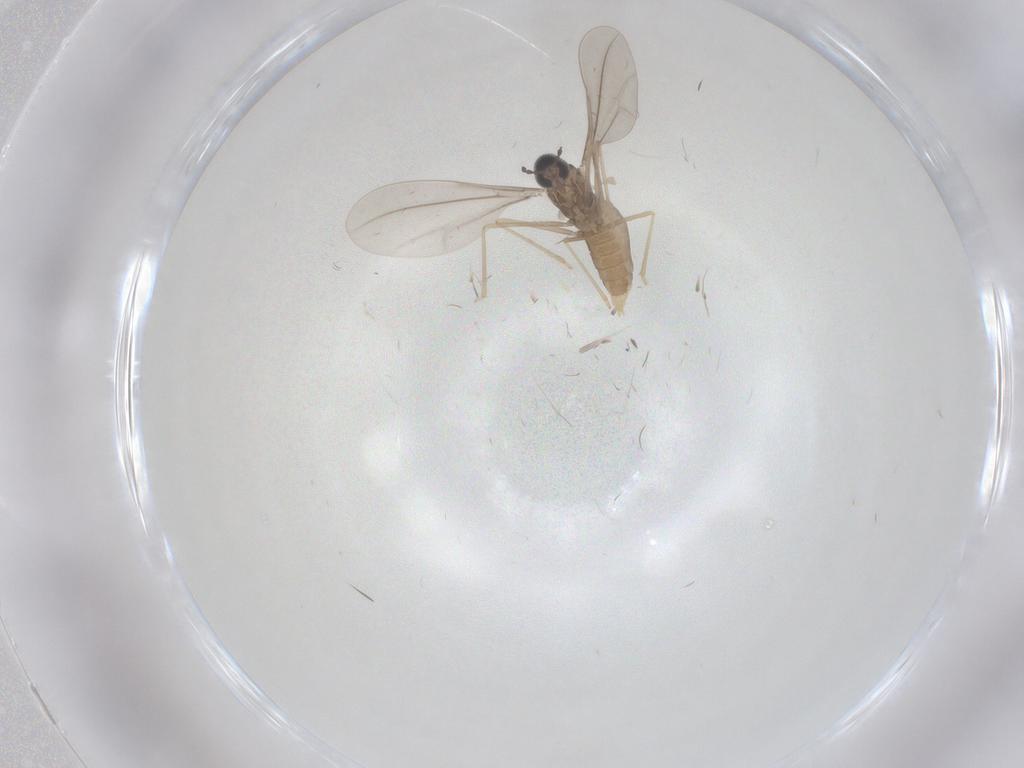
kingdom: Animalia
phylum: Arthropoda
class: Insecta
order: Diptera
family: Cecidomyiidae
